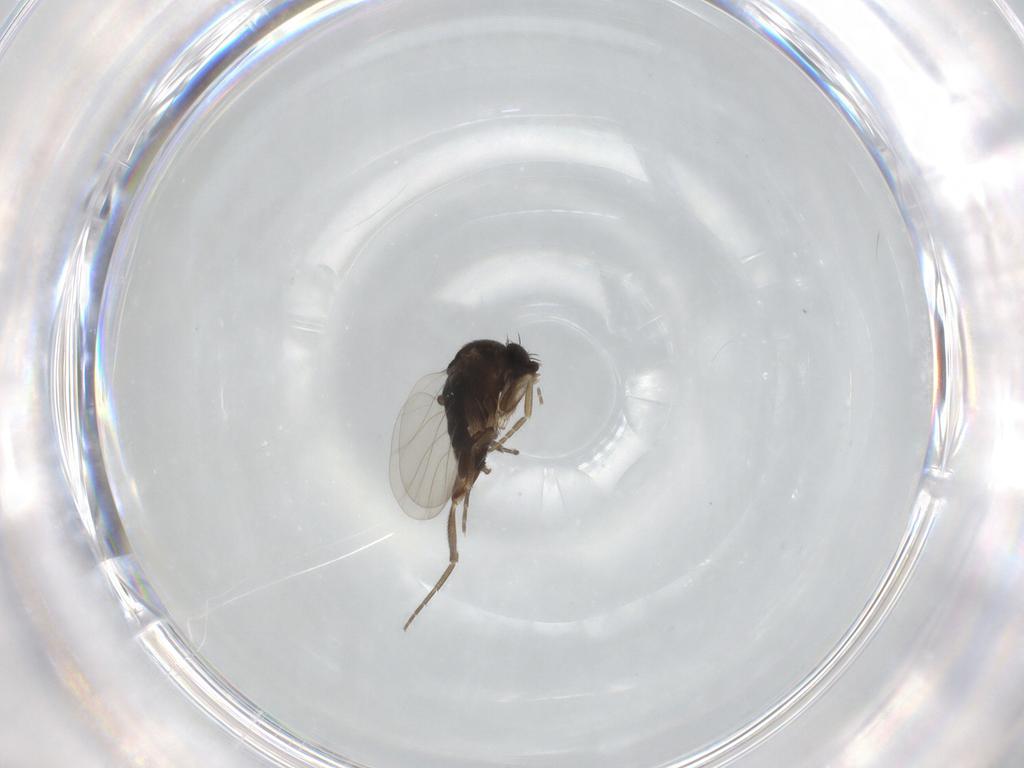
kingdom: Animalia
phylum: Arthropoda
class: Insecta
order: Diptera
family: Phoridae
